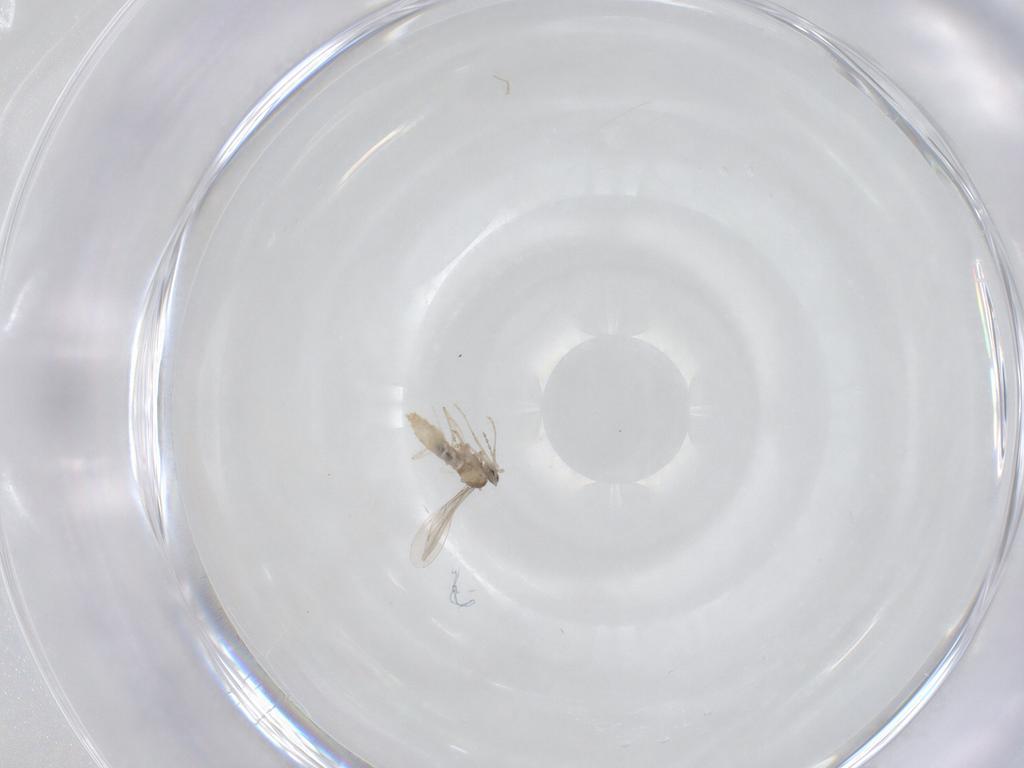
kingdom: Animalia
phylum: Arthropoda
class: Insecta
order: Diptera
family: Cecidomyiidae
